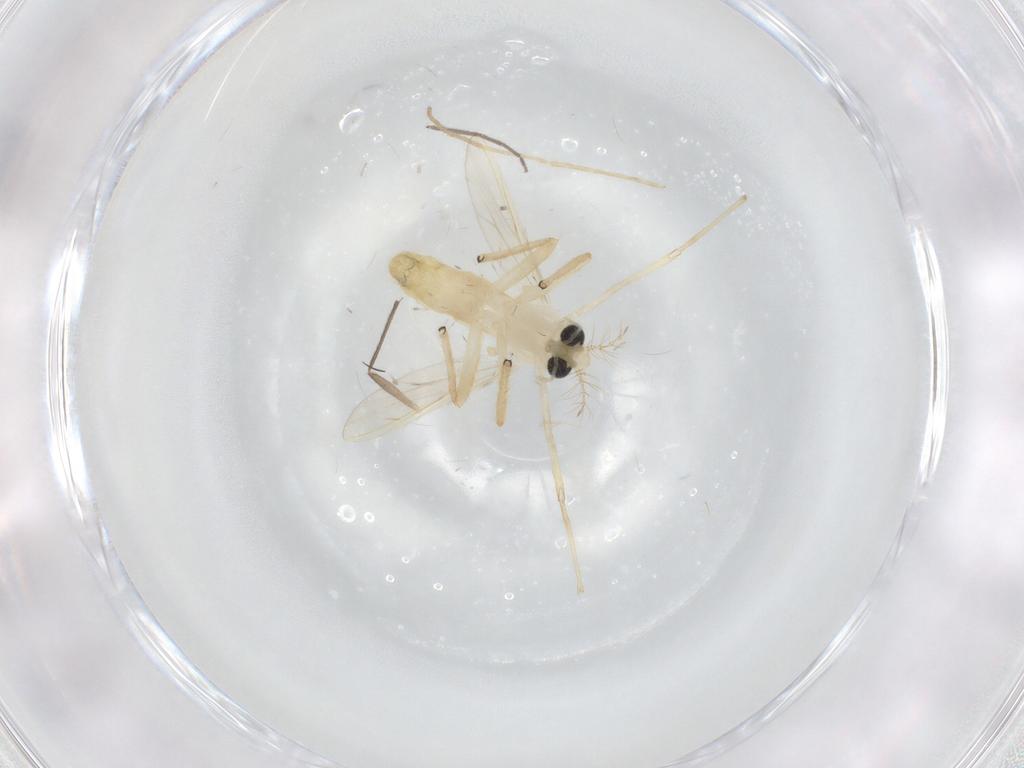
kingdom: Animalia
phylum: Arthropoda
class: Insecta
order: Diptera
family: Chironomidae
